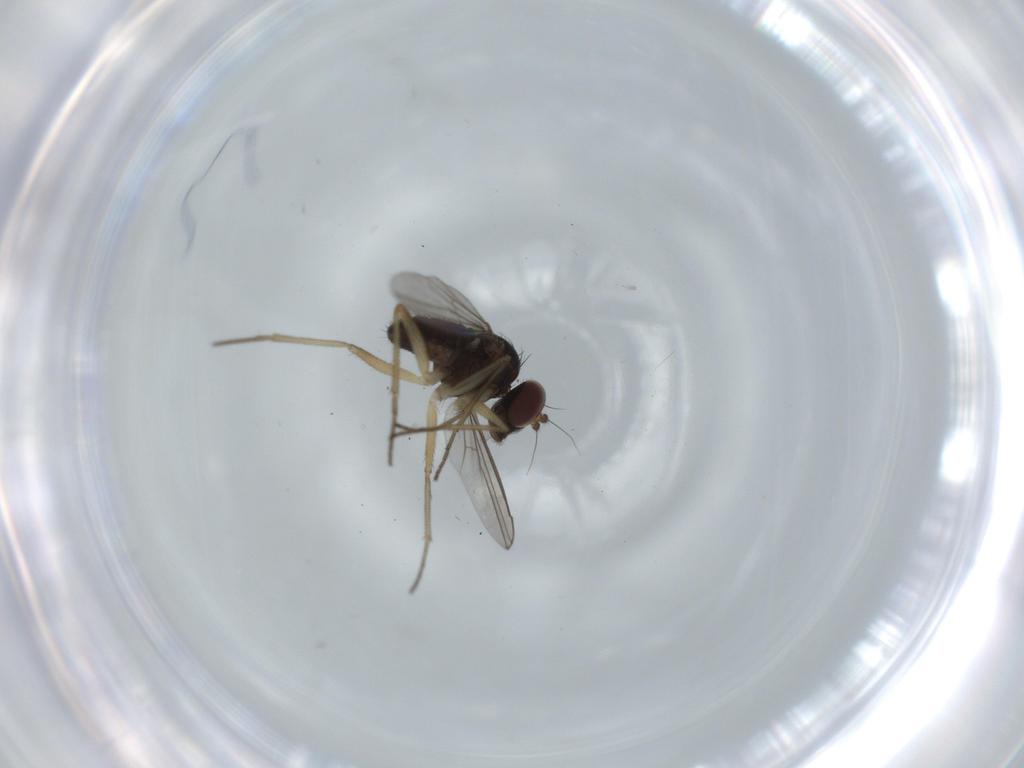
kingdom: Animalia
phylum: Arthropoda
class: Insecta
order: Diptera
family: Dolichopodidae
